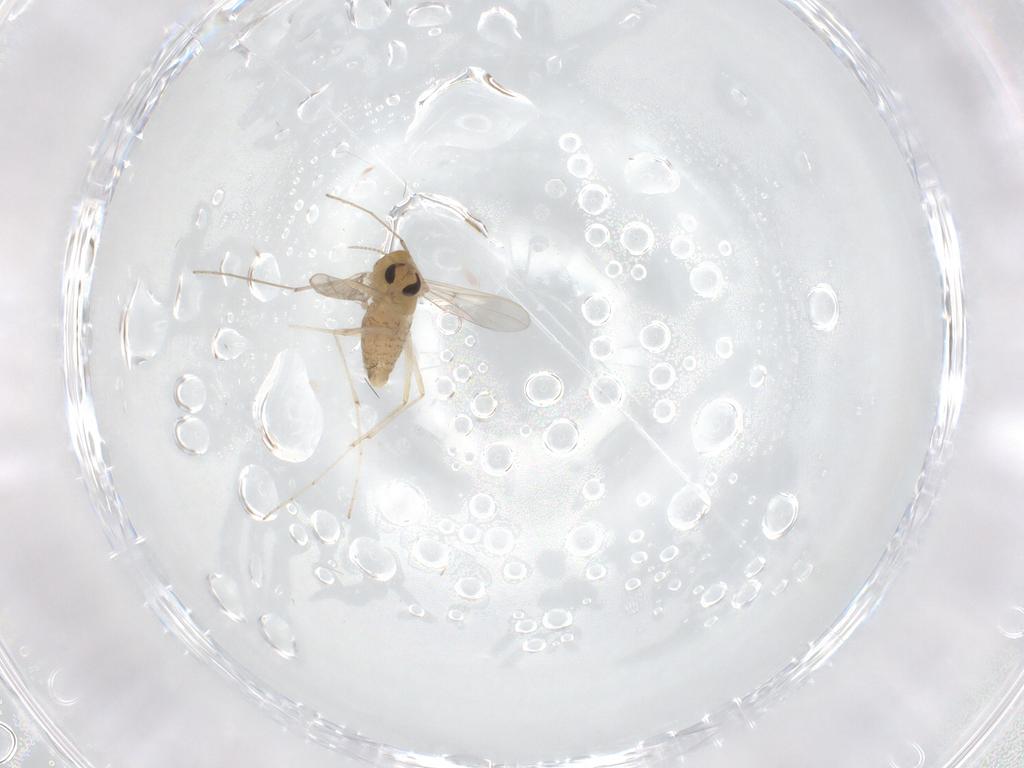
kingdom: Animalia
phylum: Arthropoda
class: Insecta
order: Diptera
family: Chironomidae
